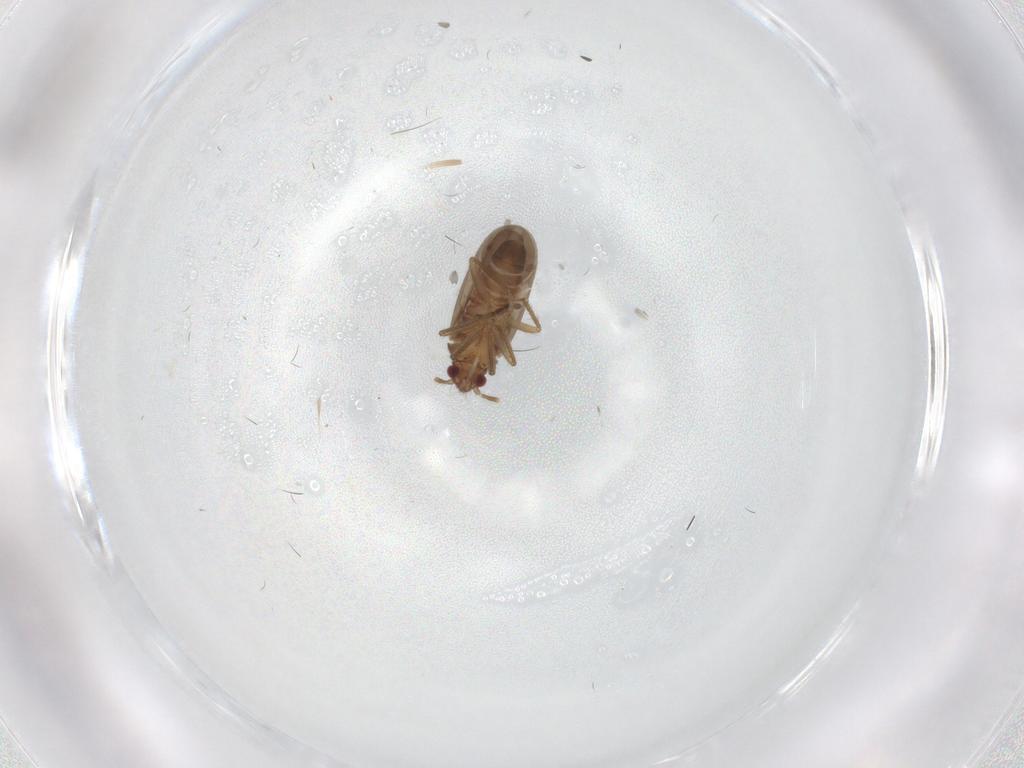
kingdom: Animalia
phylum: Arthropoda
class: Insecta
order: Hemiptera
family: Ceratocombidae
